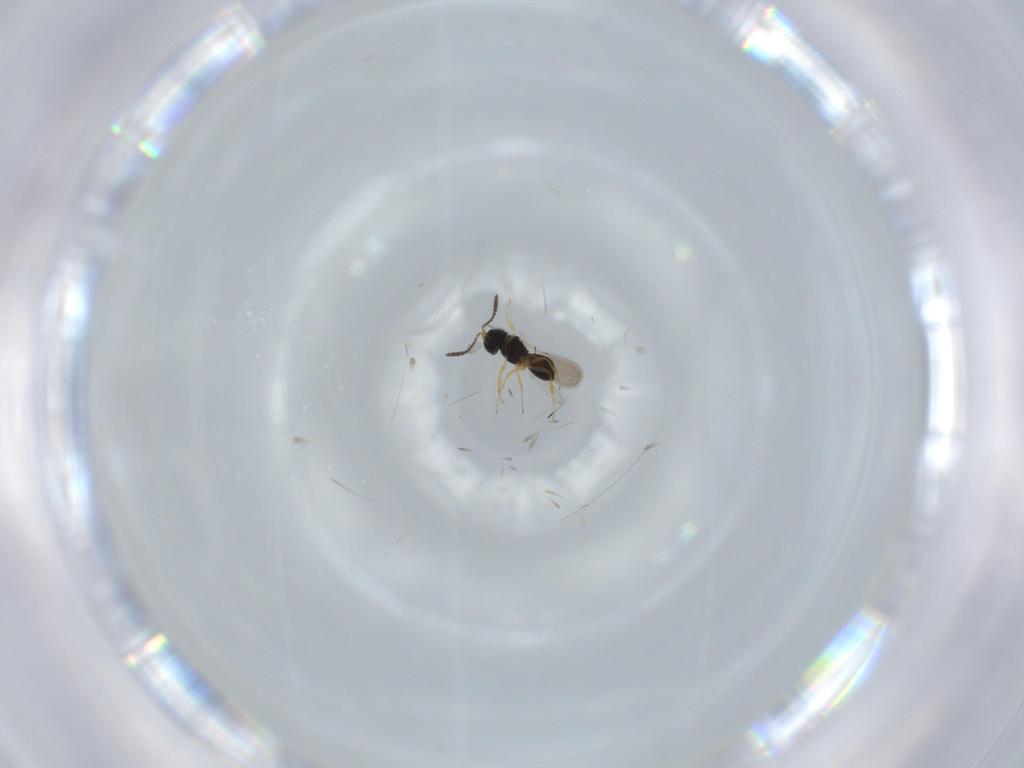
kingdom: Animalia
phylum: Arthropoda
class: Insecta
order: Hymenoptera
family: Scelionidae
